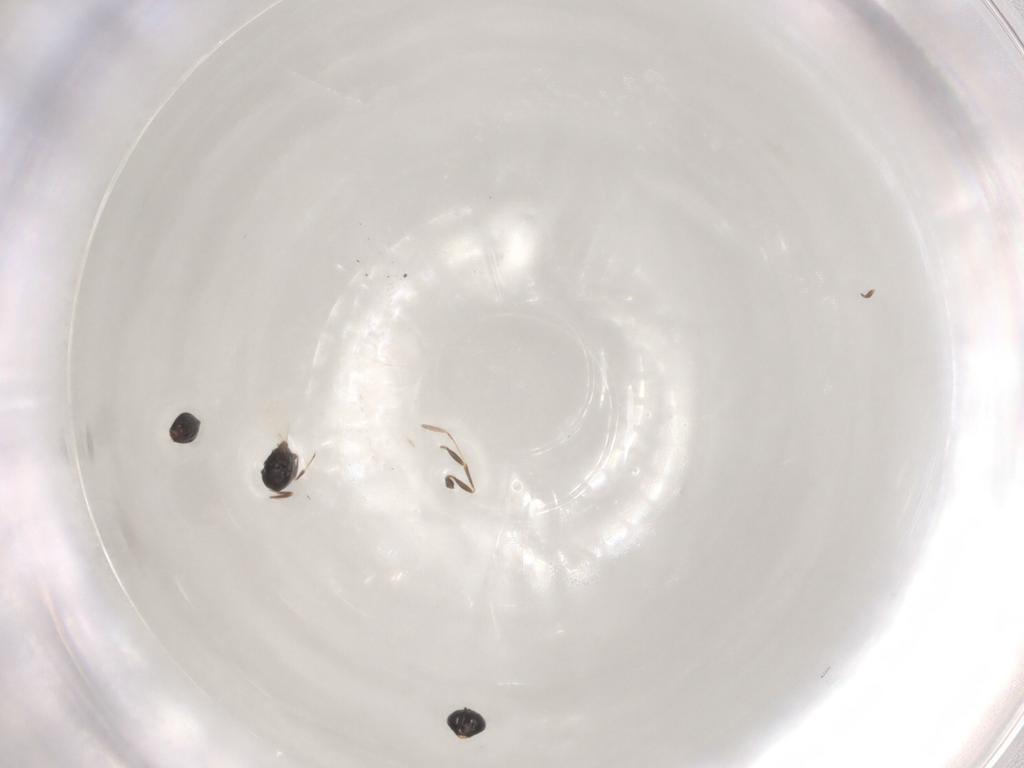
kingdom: Animalia
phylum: Arthropoda
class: Insecta
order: Hymenoptera
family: Scelionidae
